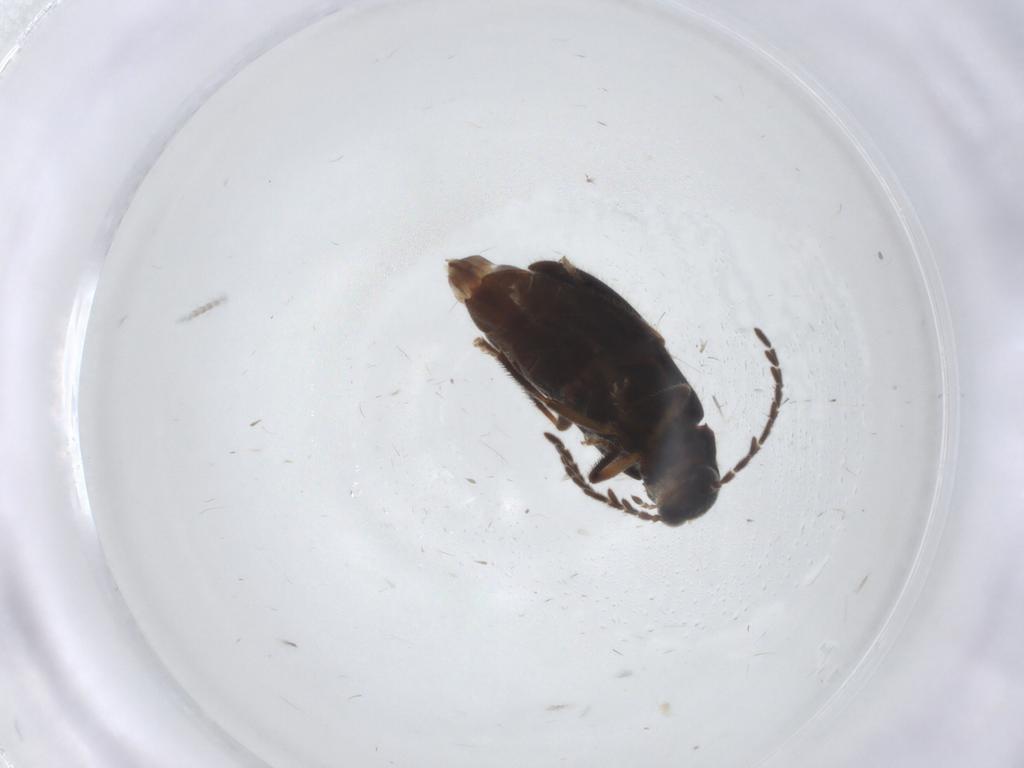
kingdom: Animalia
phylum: Arthropoda
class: Insecta
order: Coleoptera
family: Ptilodactylidae
